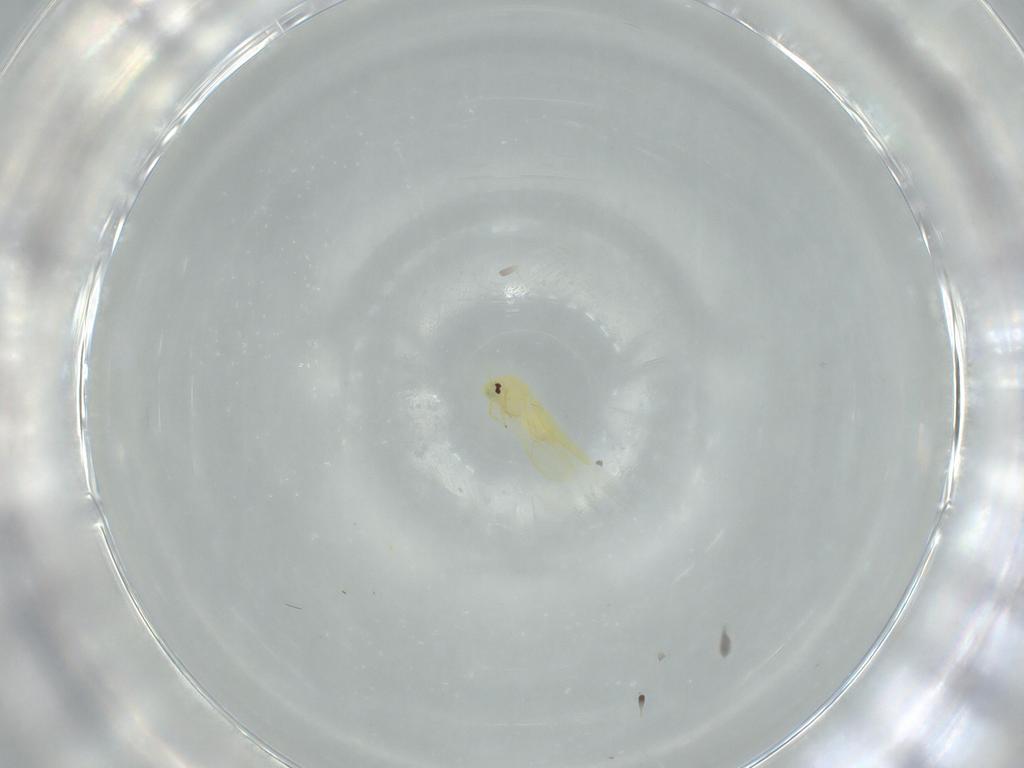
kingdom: Animalia
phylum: Arthropoda
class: Insecta
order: Hemiptera
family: Aleyrodidae
